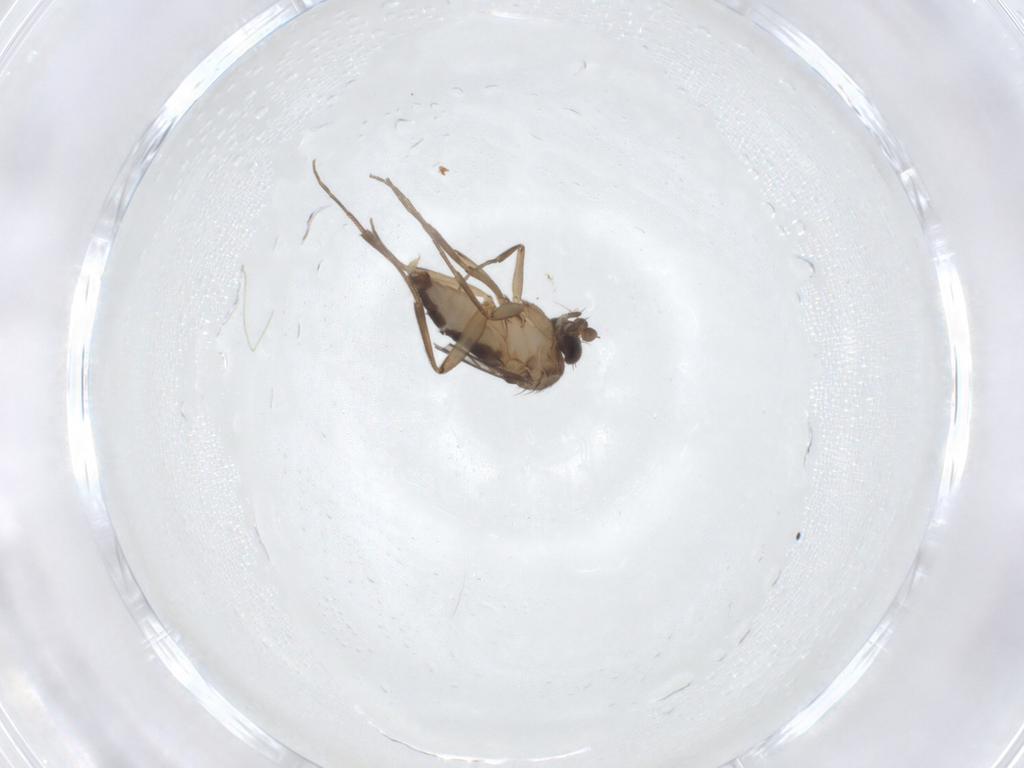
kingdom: Animalia
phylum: Arthropoda
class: Insecta
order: Diptera
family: Phoridae
